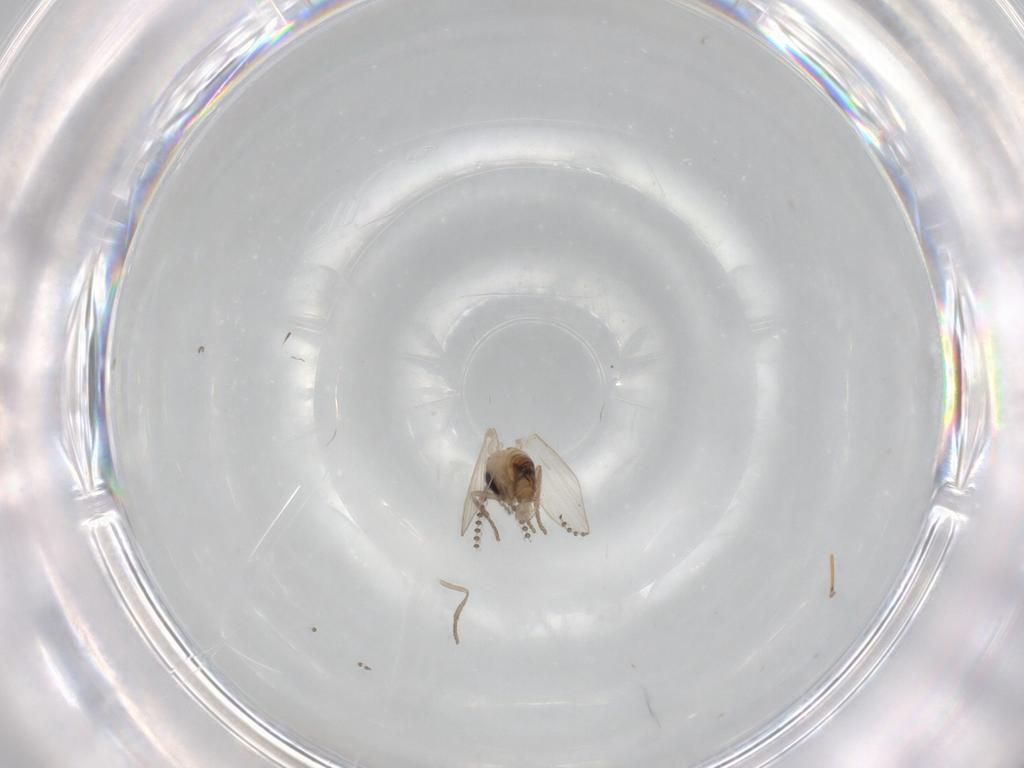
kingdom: Animalia
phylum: Arthropoda
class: Insecta
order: Diptera
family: Psychodidae
